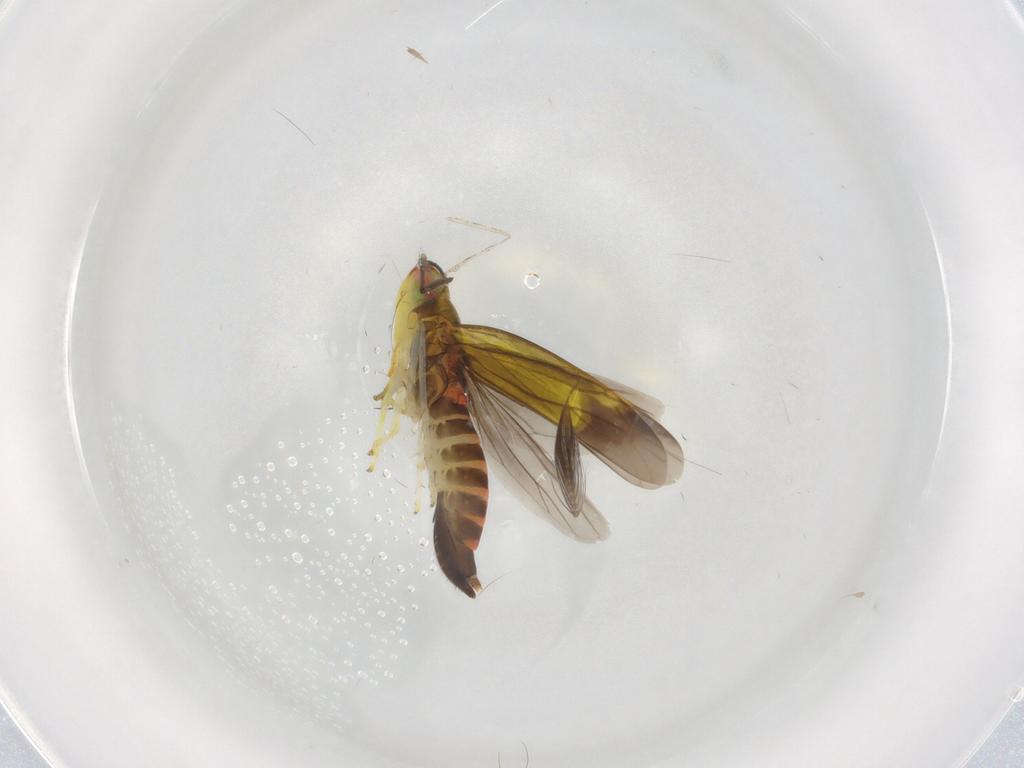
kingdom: Animalia
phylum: Arthropoda
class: Insecta
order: Hemiptera
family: Cicadellidae
